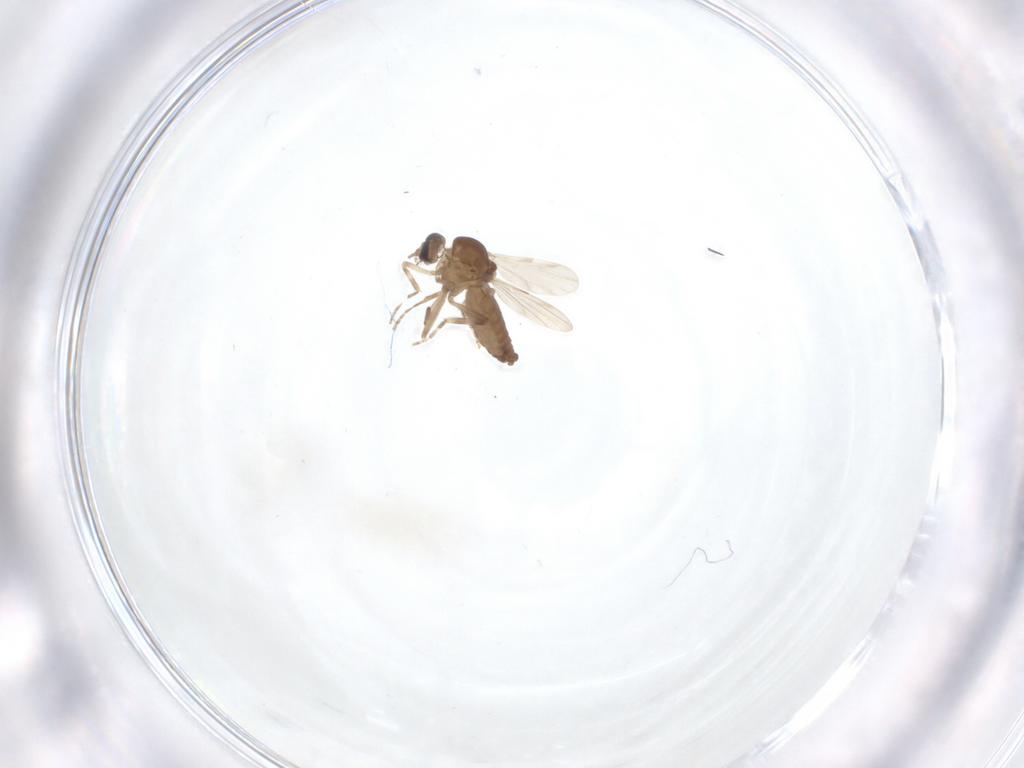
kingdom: Animalia
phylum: Arthropoda
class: Insecta
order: Diptera
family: Ceratopogonidae
